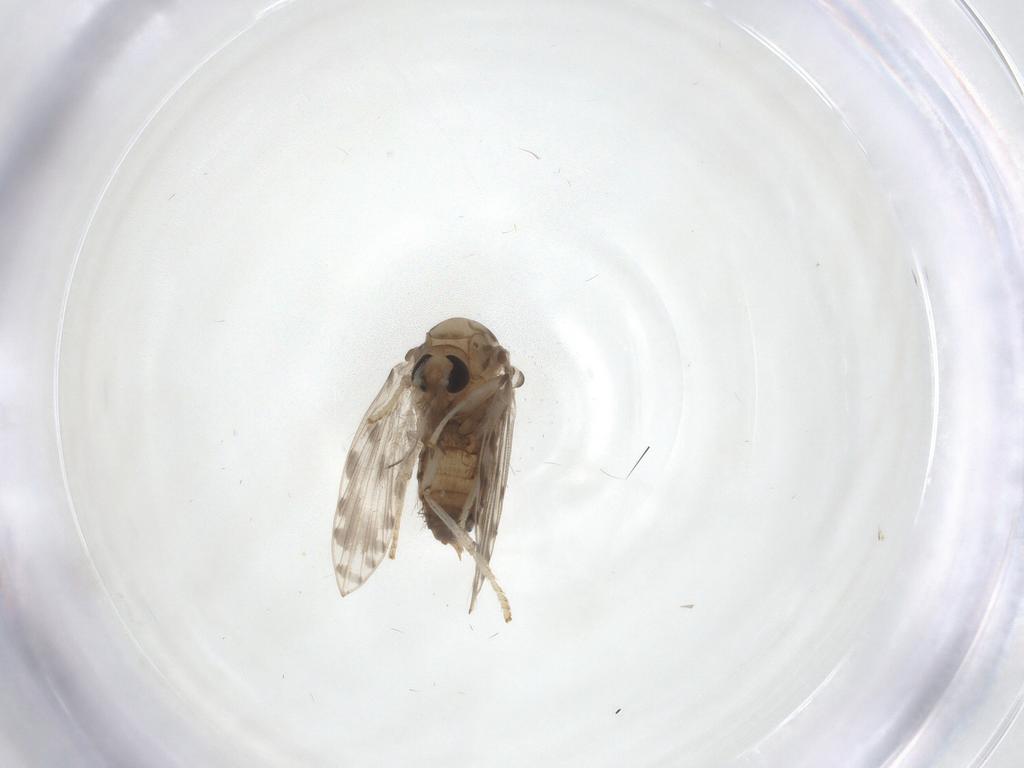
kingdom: Animalia
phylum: Arthropoda
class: Insecta
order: Diptera
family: Psychodidae
